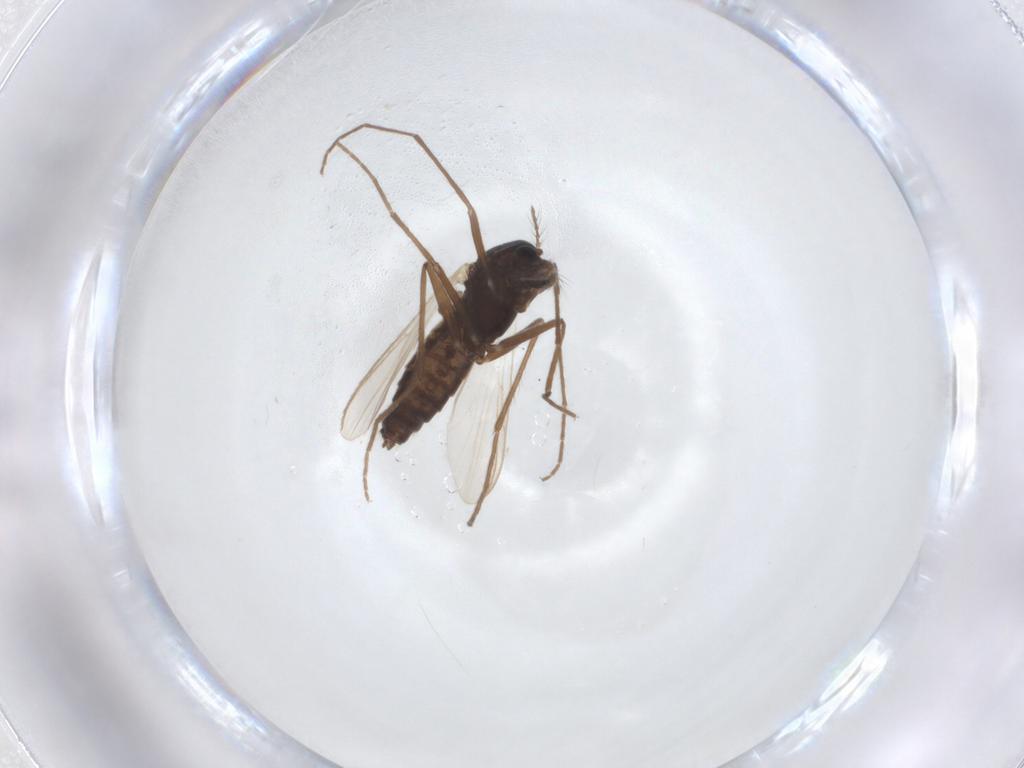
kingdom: Animalia
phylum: Arthropoda
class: Insecta
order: Diptera
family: Chironomidae
